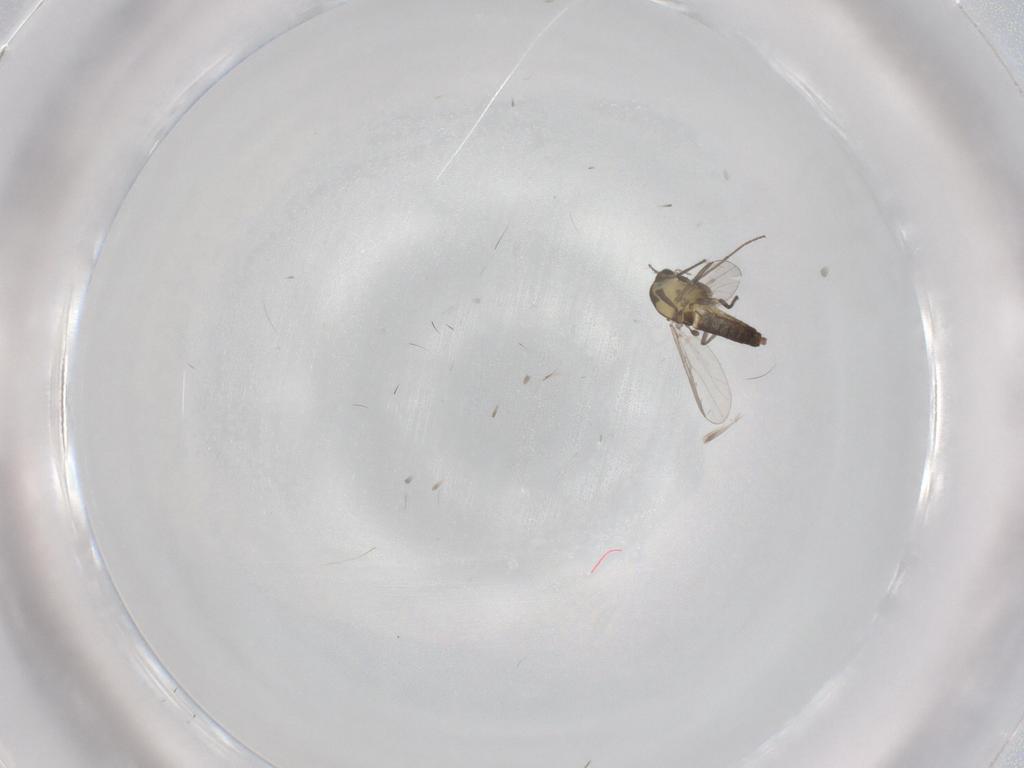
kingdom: Animalia
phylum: Arthropoda
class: Insecta
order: Diptera
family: Chironomidae
